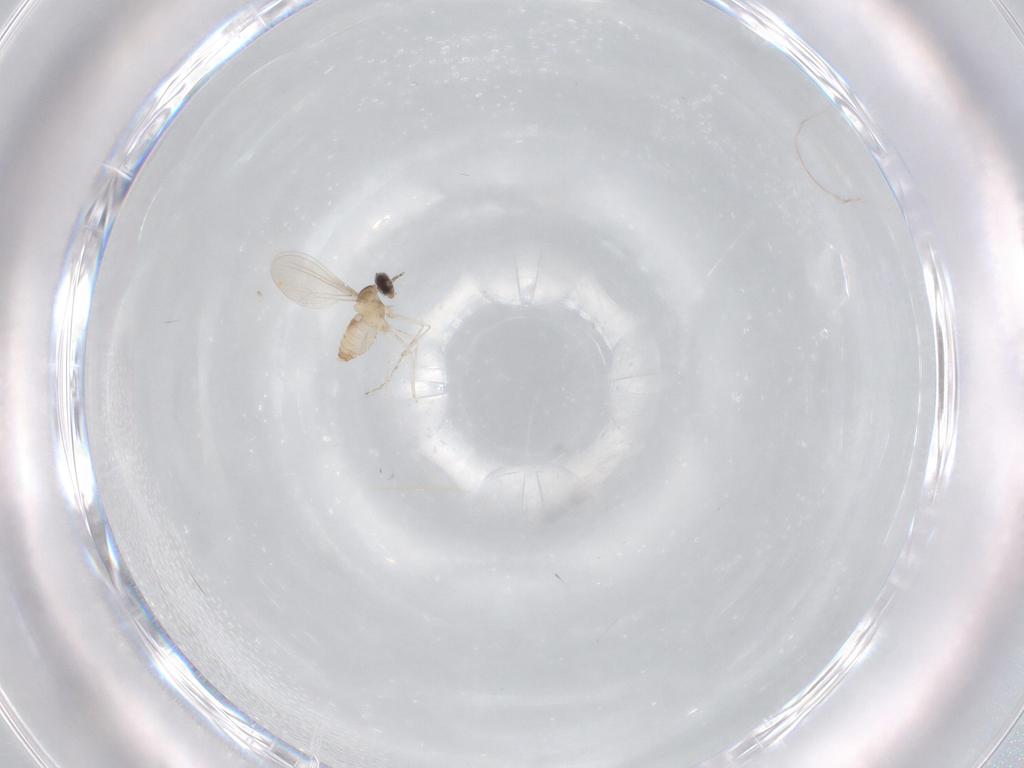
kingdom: Animalia
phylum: Arthropoda
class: Insecta
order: Diptera
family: Cecidomyiidae
